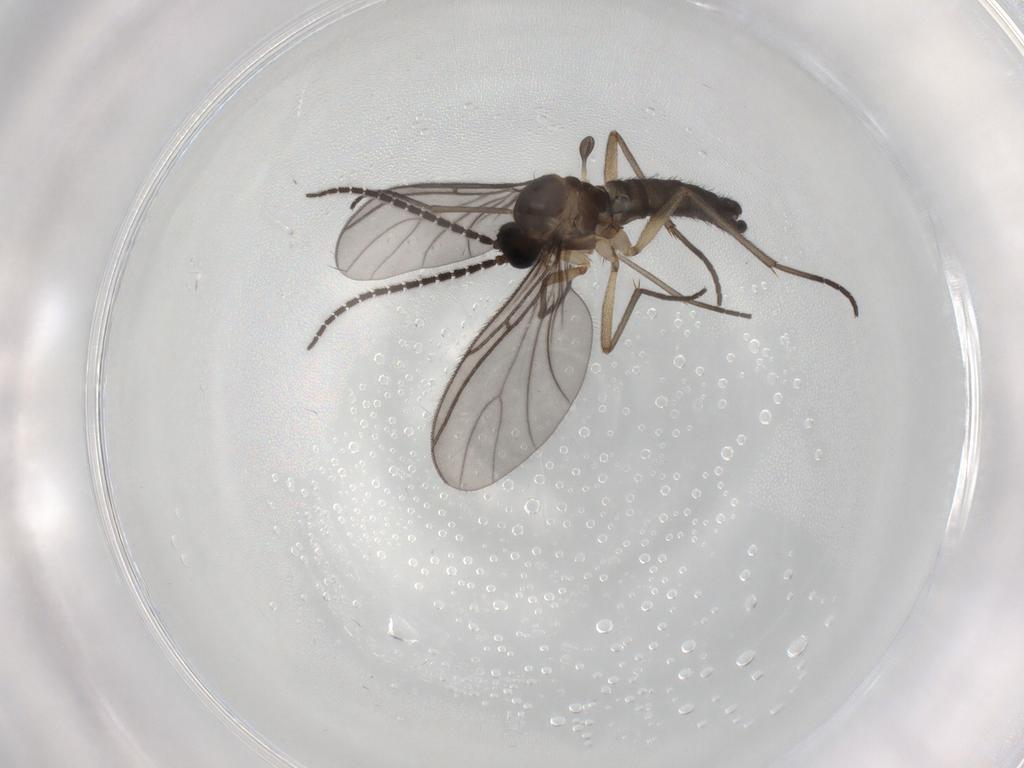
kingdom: Animalia
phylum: Arthropoda
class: Insecta
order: Diptera
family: Sciaridae
